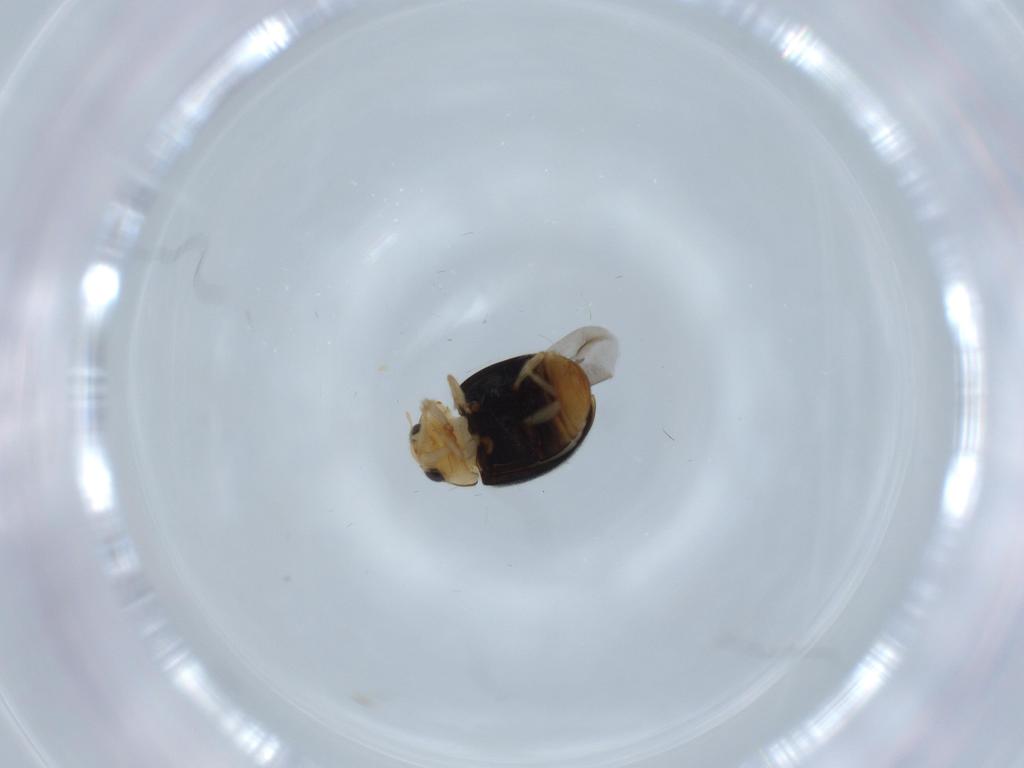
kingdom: Animalia
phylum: Arthropoda
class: Insecta
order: Coleoptera
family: Curculionidae
